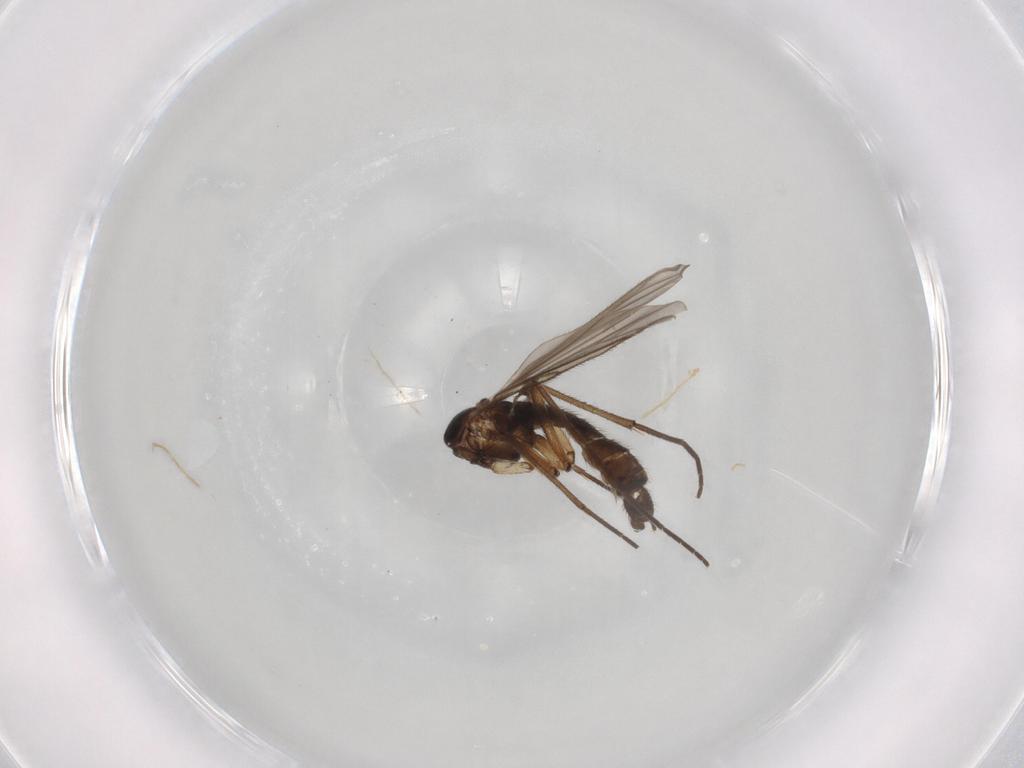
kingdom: Animalia
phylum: Arthropoda
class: Insecta
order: Diptera
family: Sciaridae
